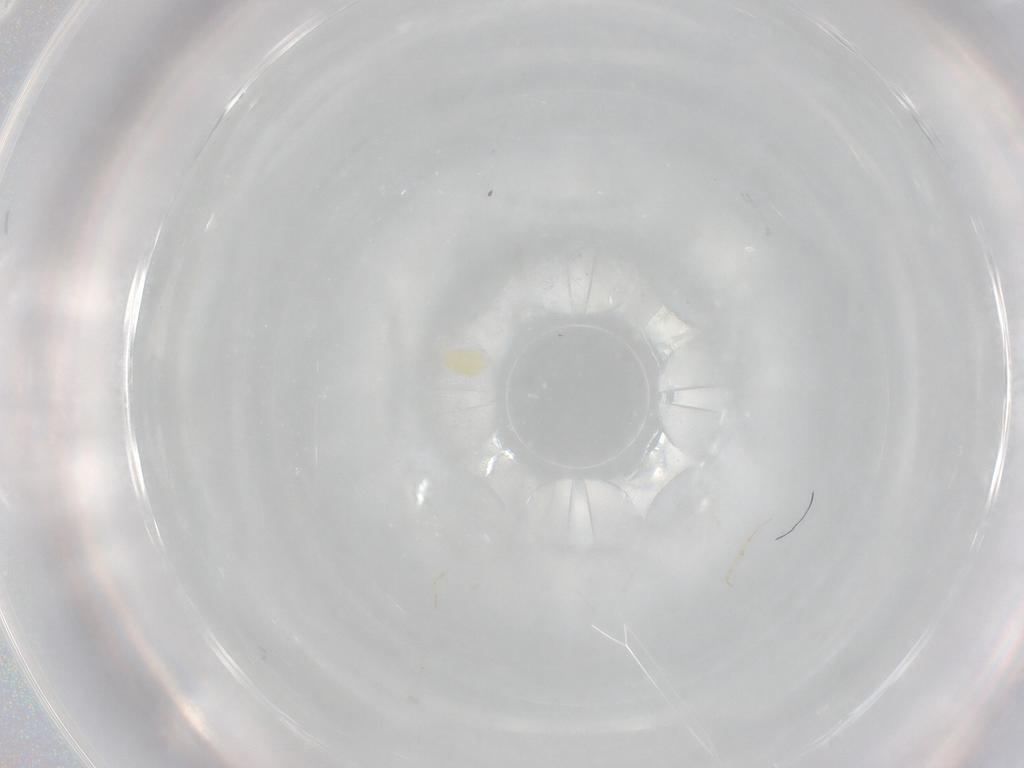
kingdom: Animalia
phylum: Arthropoda
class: Arachnida
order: Trombidiformes
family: Eupodidae
